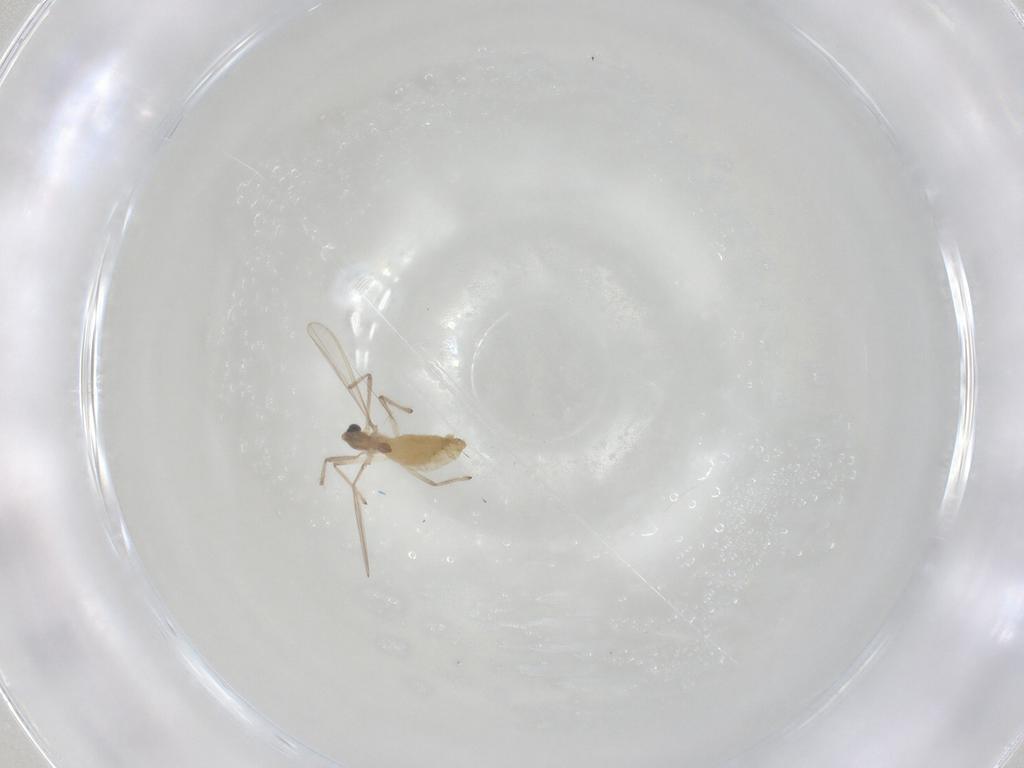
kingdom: Animalia
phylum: Arthropoda
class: Insecta
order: Diptera
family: Chironomidae
